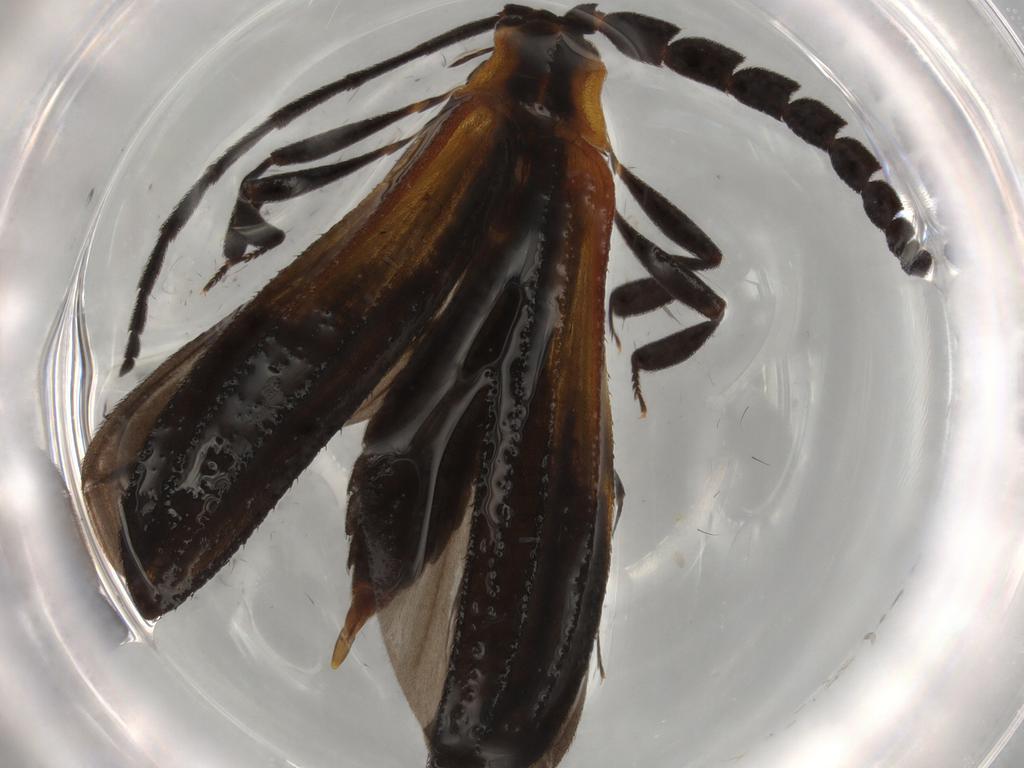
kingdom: Animalia
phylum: Arthropoda
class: Insecta
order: Coleoptera
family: Lycidae
